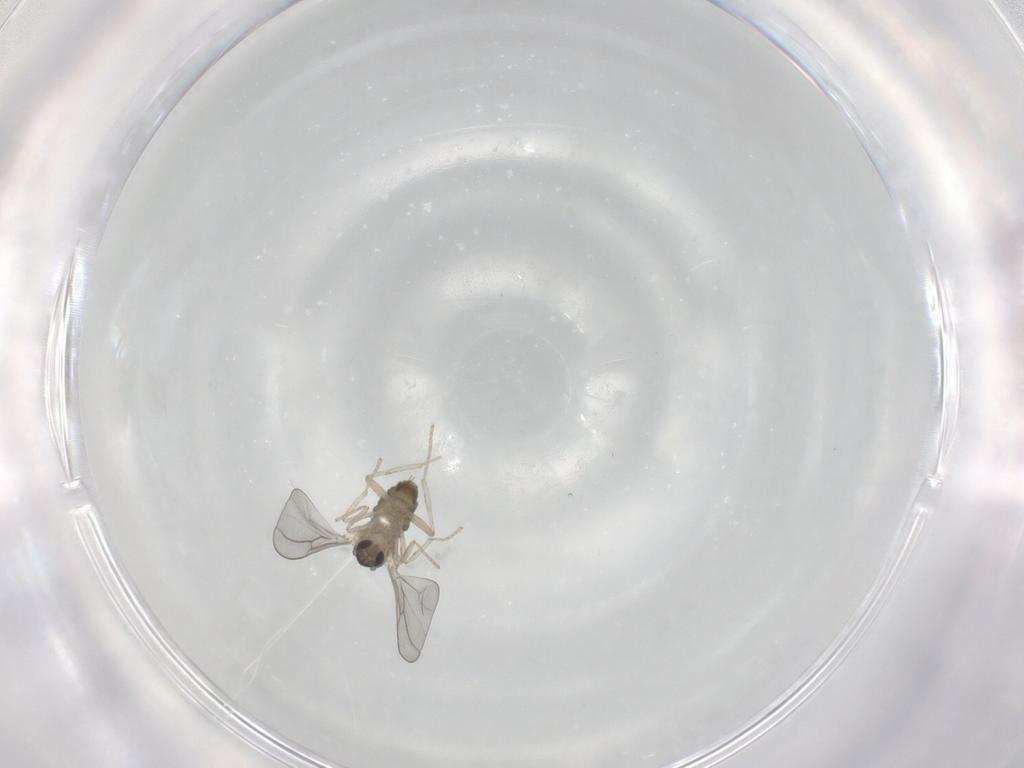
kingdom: Animalia
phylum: Arthropoda
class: Insecta
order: Diptera
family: Cecidomyiidae
